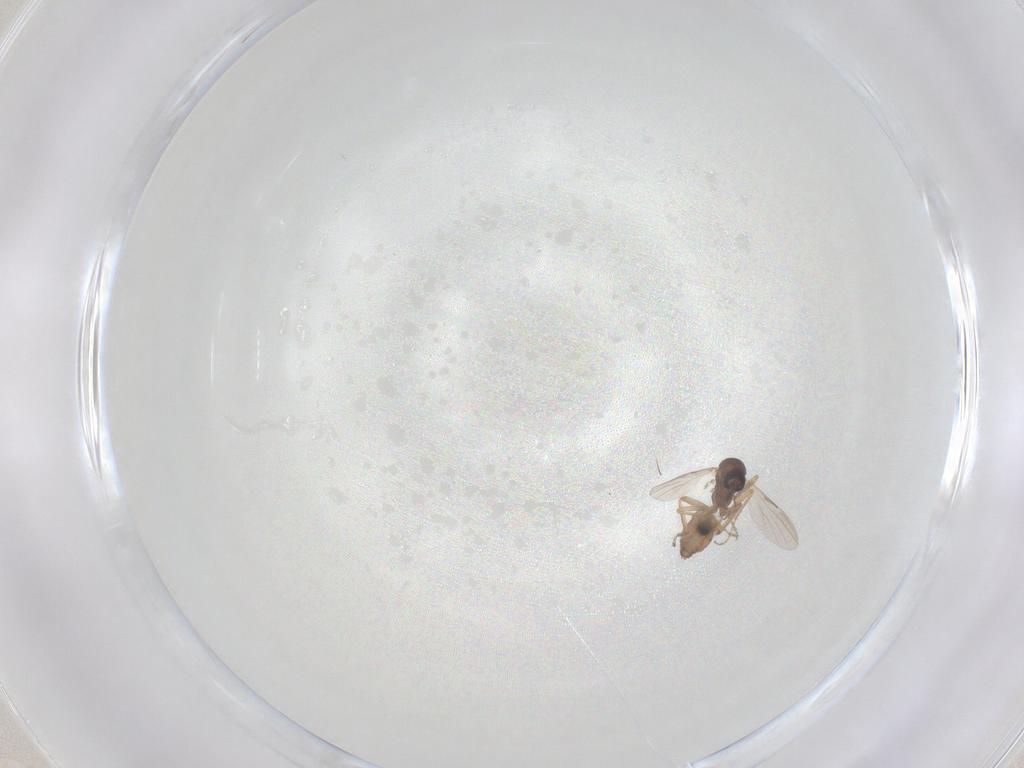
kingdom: Animalia
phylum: Arthropoda
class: Insecta
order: Diptera
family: Ceratopogonidae
